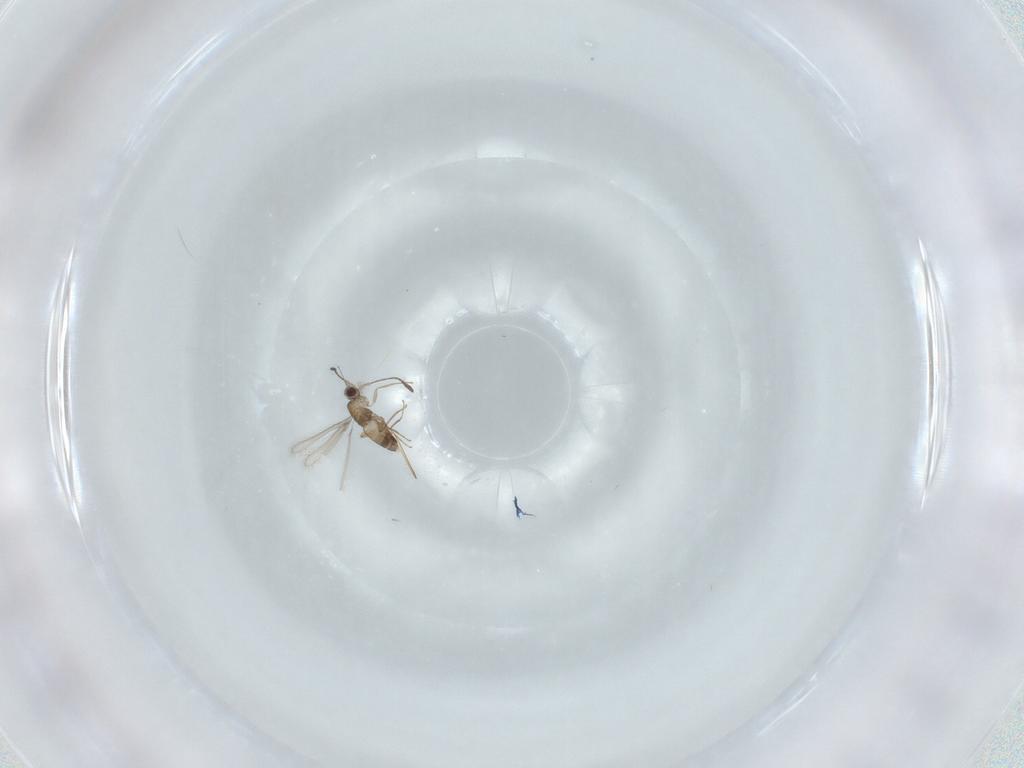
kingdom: Animalia
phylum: Arthropoda
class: Insecta
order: Hymenoptera
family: Mymaridae
